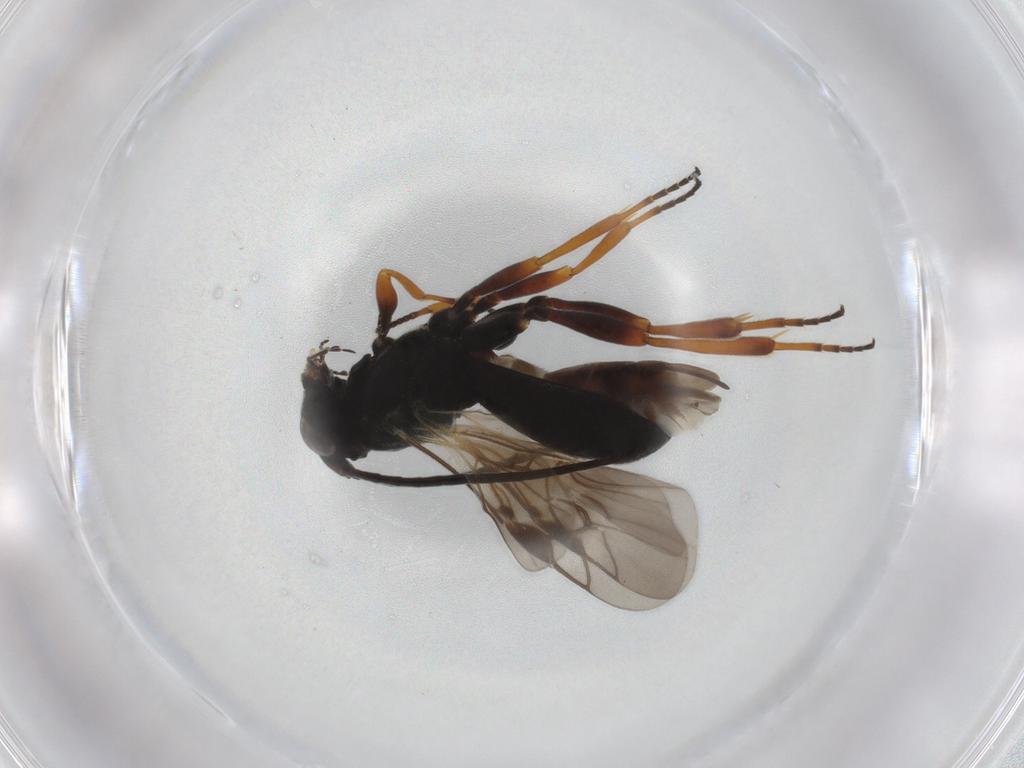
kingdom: Animalia
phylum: Arthropoda
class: Insecta
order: Hymenoptera
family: Braconidae
